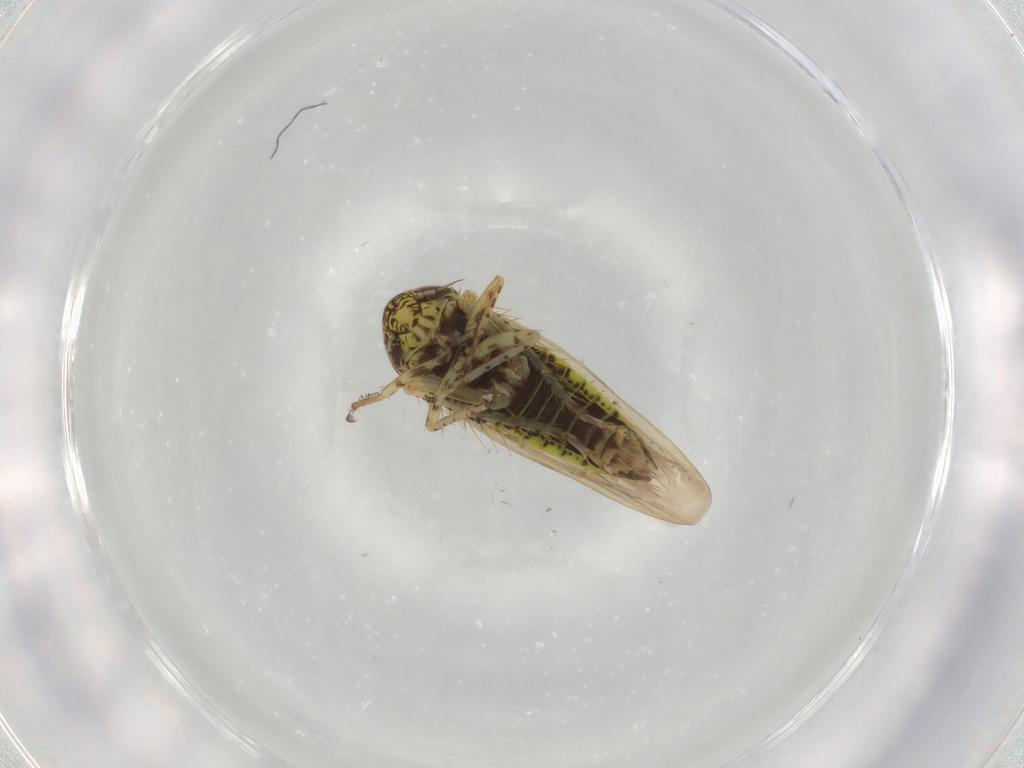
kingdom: Animalia
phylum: Arthropoda
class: Insecta
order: Hemiptera
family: Cicadellidae
